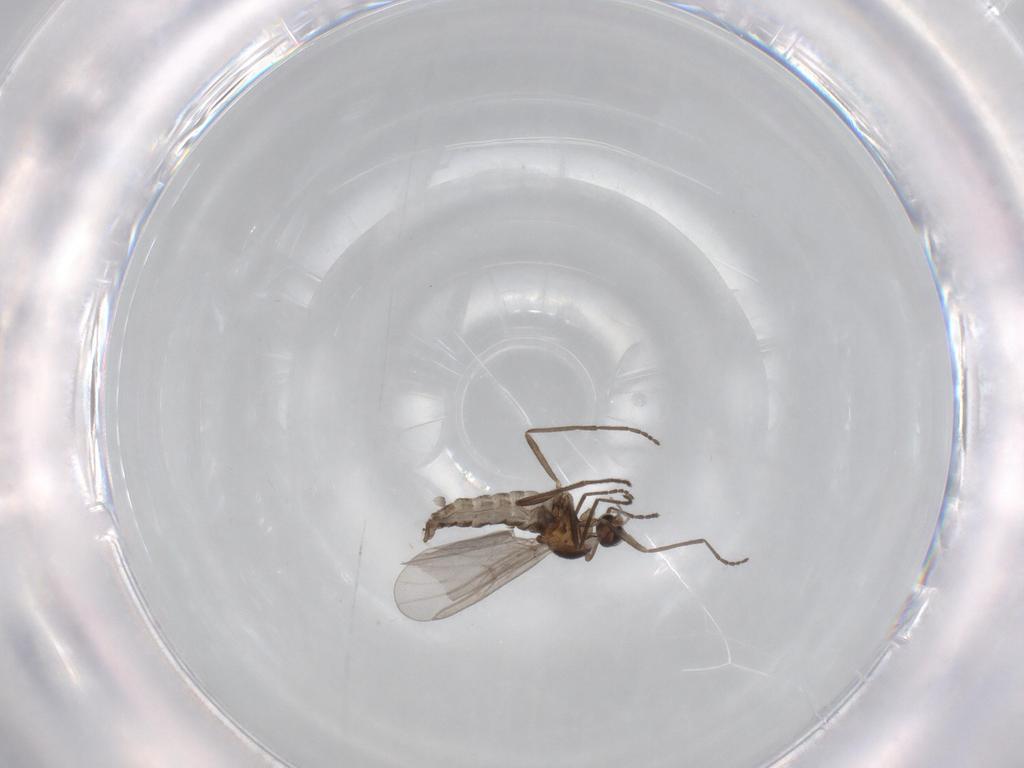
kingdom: Animalia
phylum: Arthropoda
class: Insecta
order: Diptera
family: Cecidomyiidae
